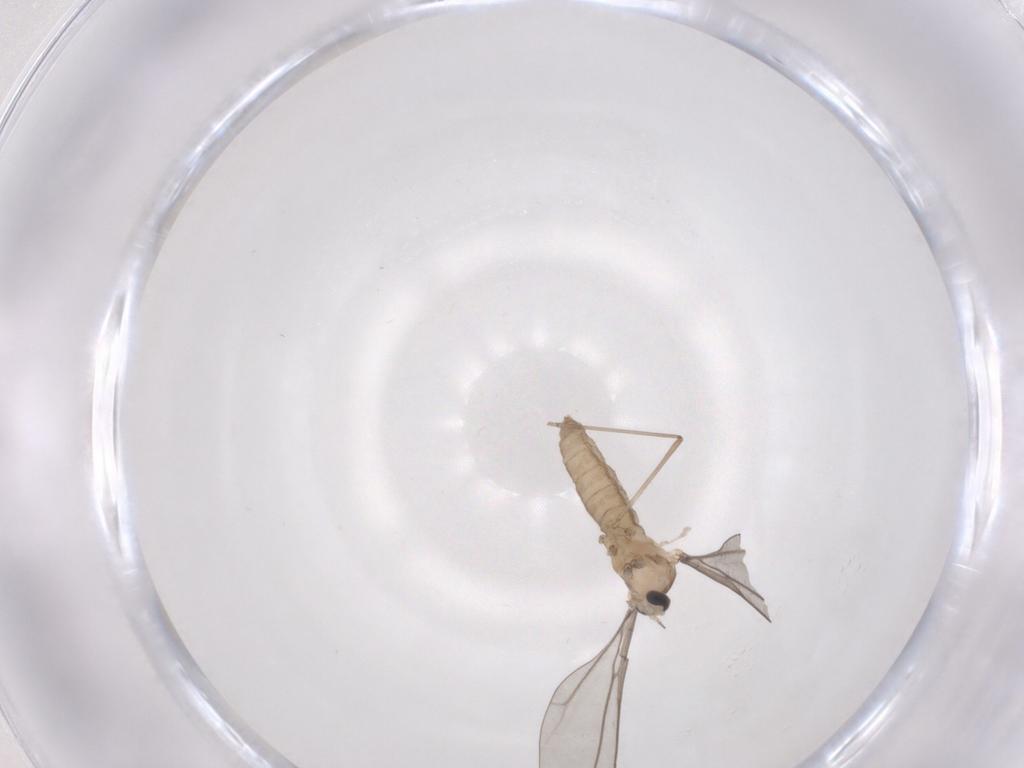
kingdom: Animalia
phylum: Arthropoda
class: Insecta
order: Diptera
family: Cecidomyiidae
